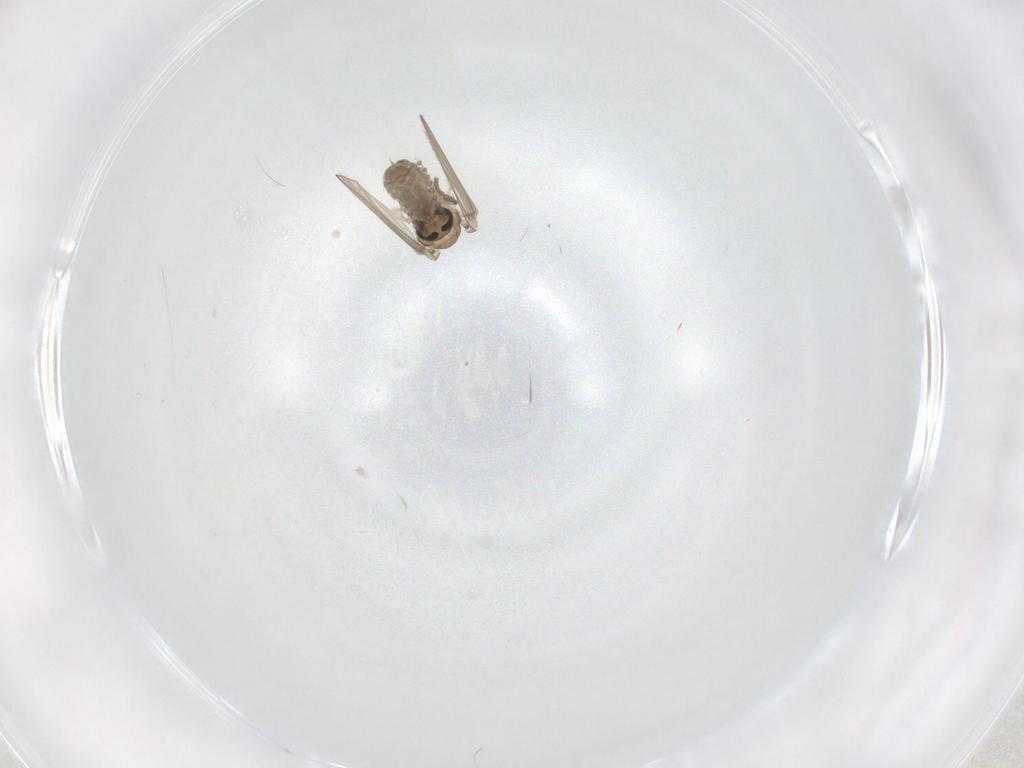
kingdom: Animalia
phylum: Arthropoda
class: Insecta
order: Diptera
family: Psychodidae
